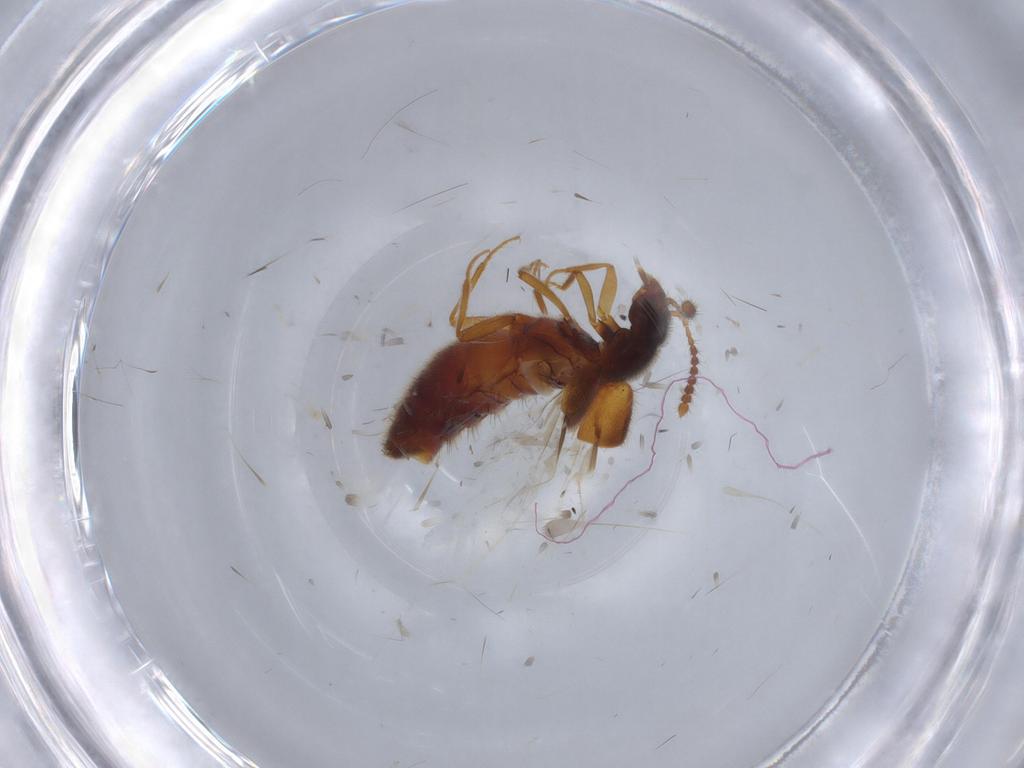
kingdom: Animalia
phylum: Arthropoda
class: Insecta
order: Coleoptera
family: Staphylinidae
